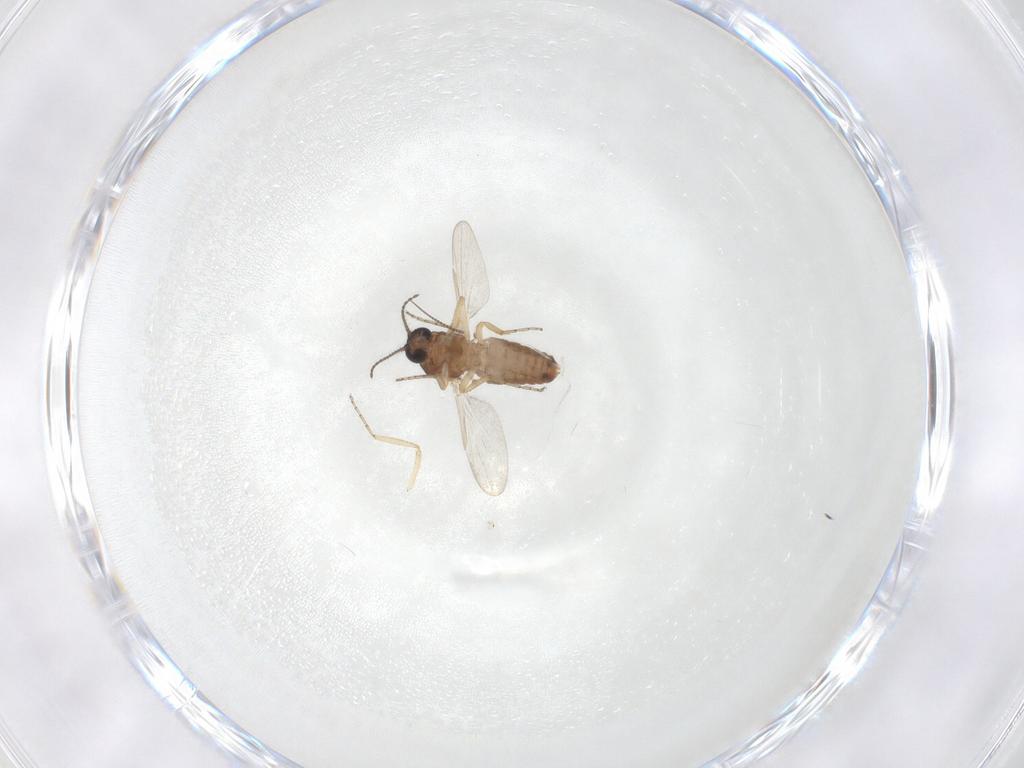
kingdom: Animalia
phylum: Arthropoda
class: Insecta
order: Diptera
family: Ceratopogonidae
